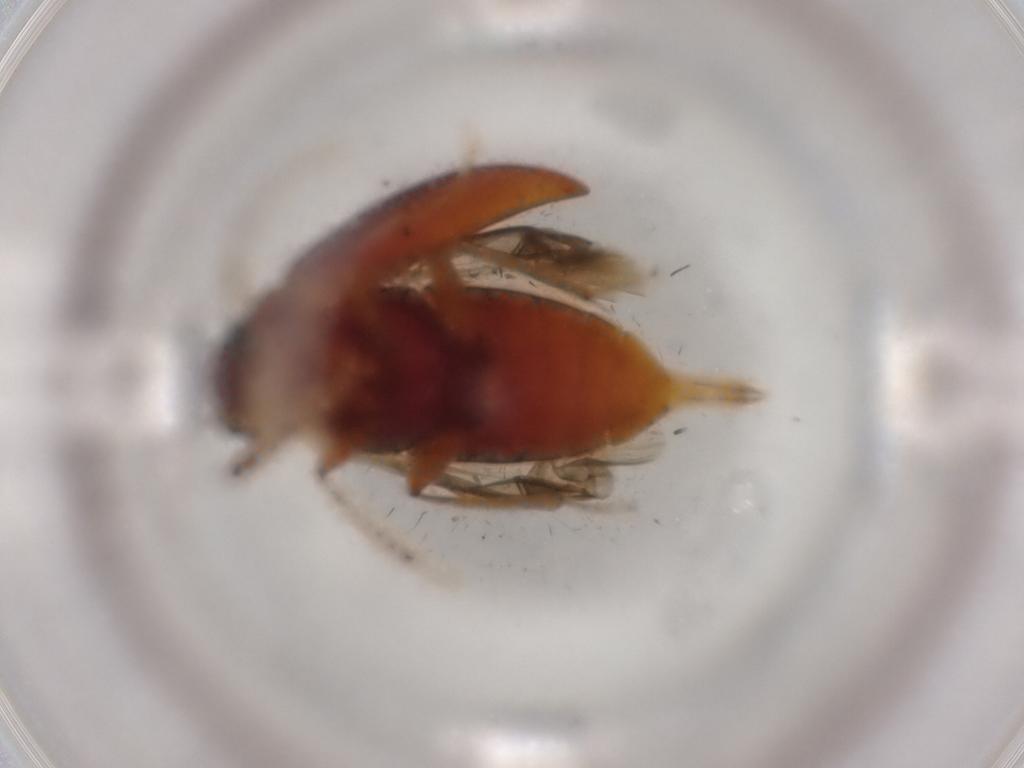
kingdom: Animalia
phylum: Arthropoda
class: Insecta
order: Coleoptera
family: Ptilodactylidae
